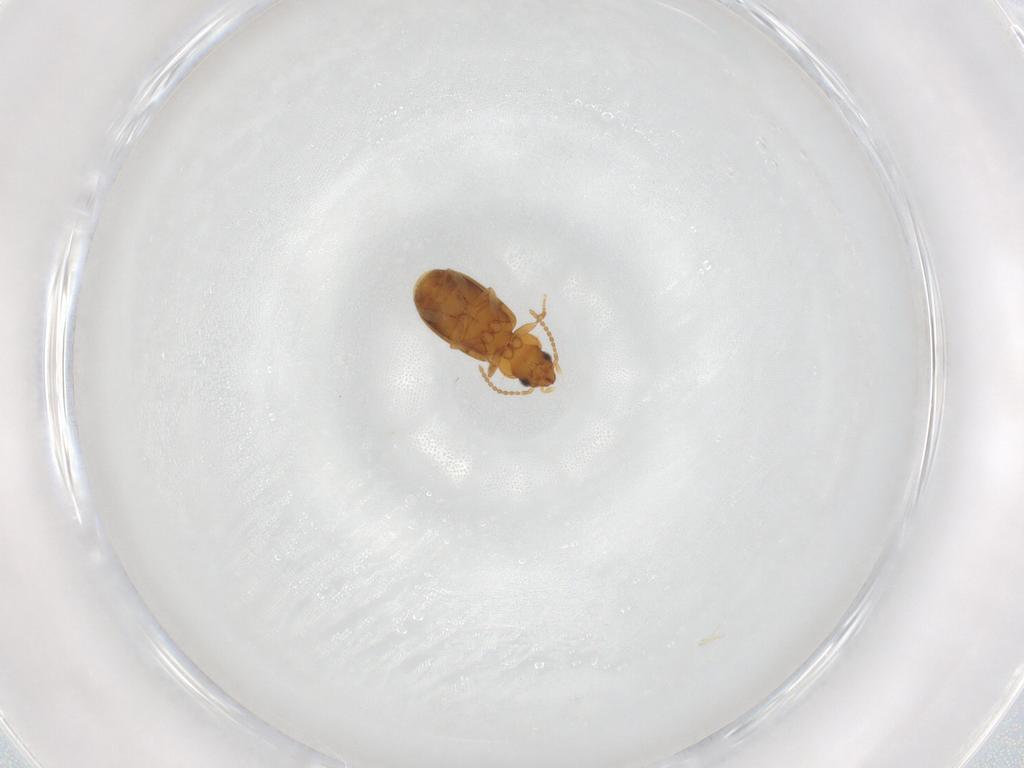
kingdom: Animalia
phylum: Arthropoda
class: Insecta
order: Coleoptera
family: Carabidae
